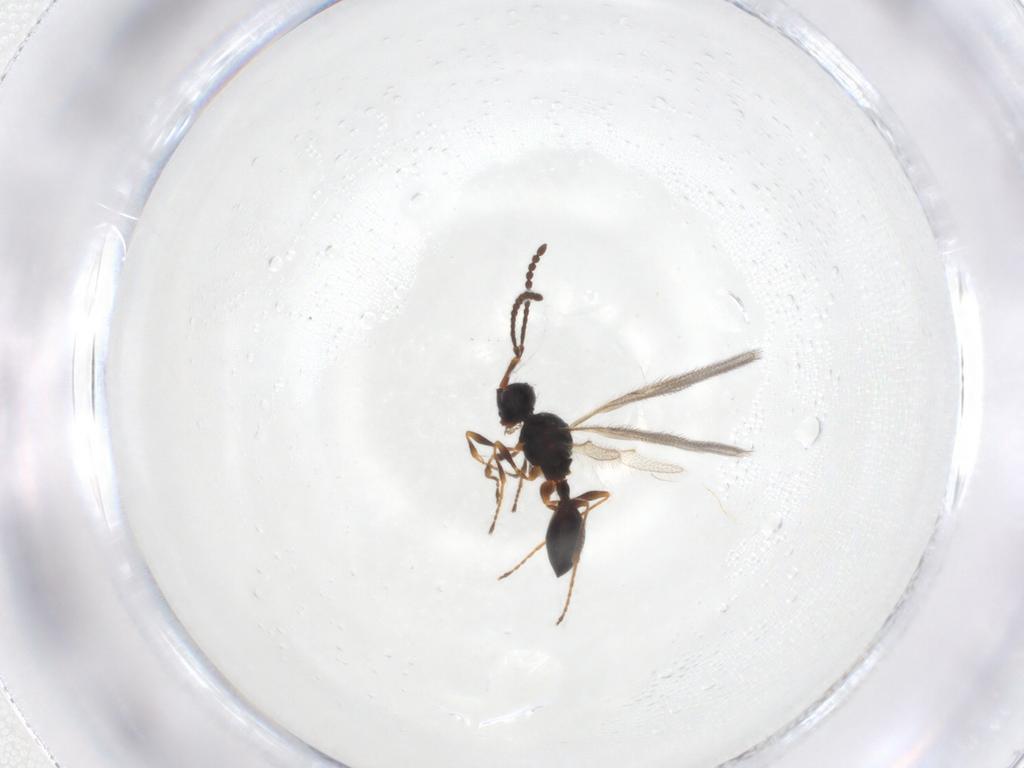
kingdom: Animalia
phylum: Arthropoda
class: Insecta
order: Hymenoptera
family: Diapriidae
